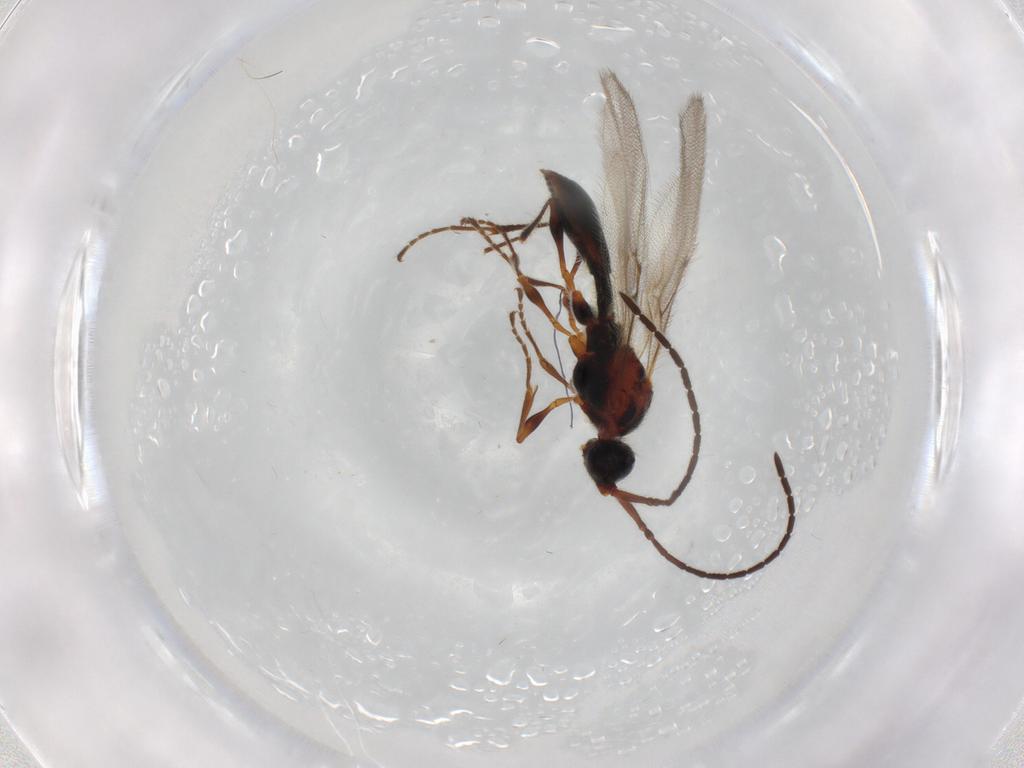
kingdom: Animalia
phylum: Arthropoda
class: Insecta
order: Hymenoptera
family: Diapriidae
